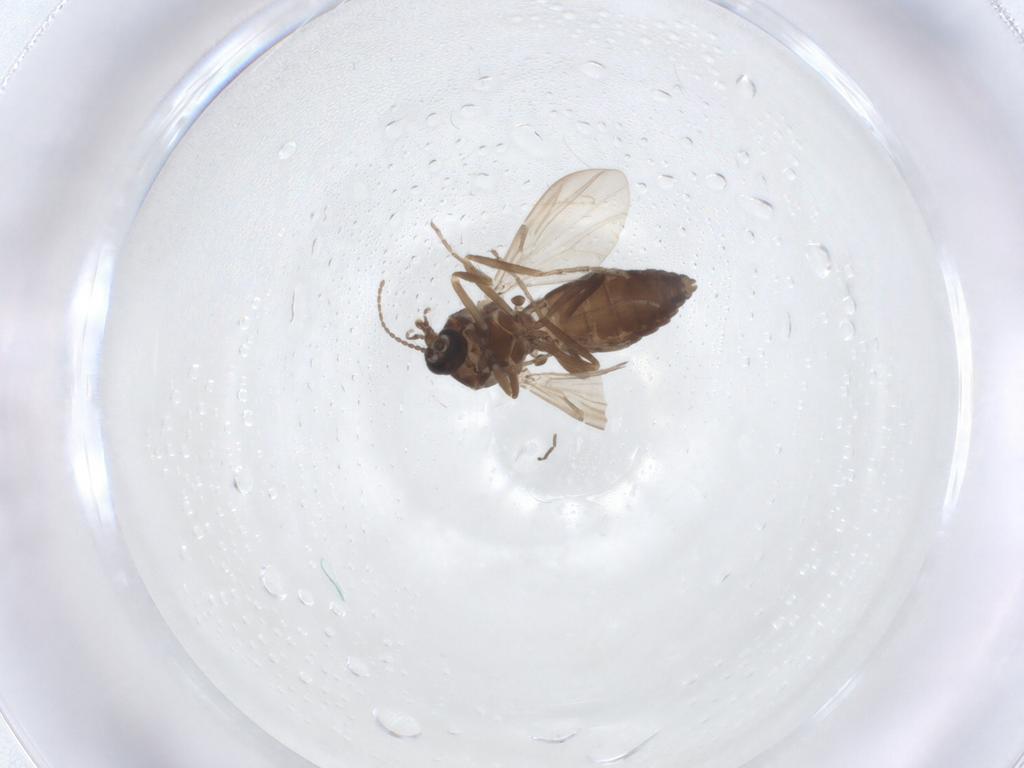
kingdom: Animalia
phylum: Arthropoda
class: Insecta
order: Diptera
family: Ceratopogonidae
